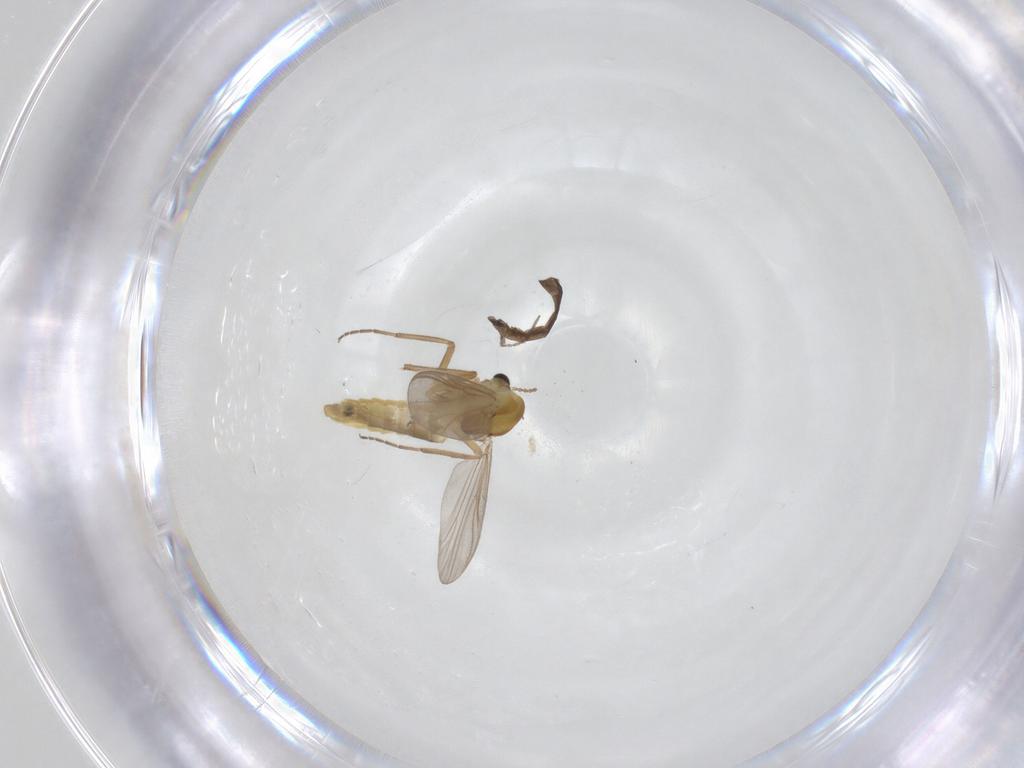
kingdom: Animalia
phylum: Arthropoda
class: Insecta
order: Diptera
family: Chironomidae
